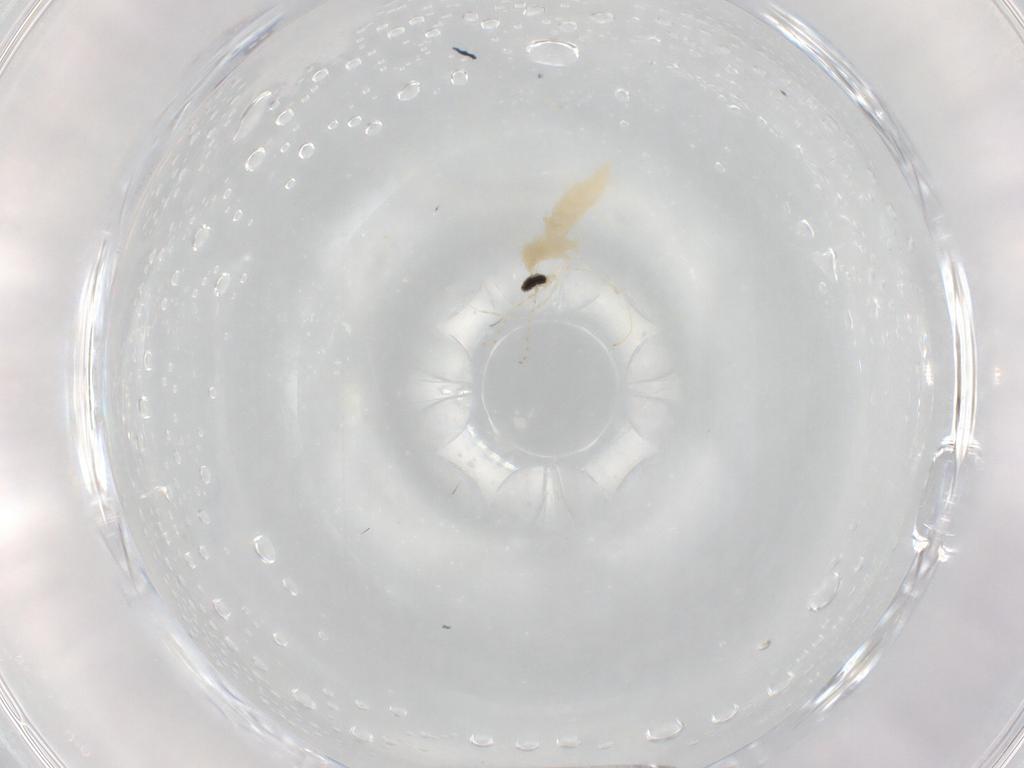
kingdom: Animalia
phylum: Arthropoda
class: Insecta
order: Diptera
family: Cecidomyiidae
